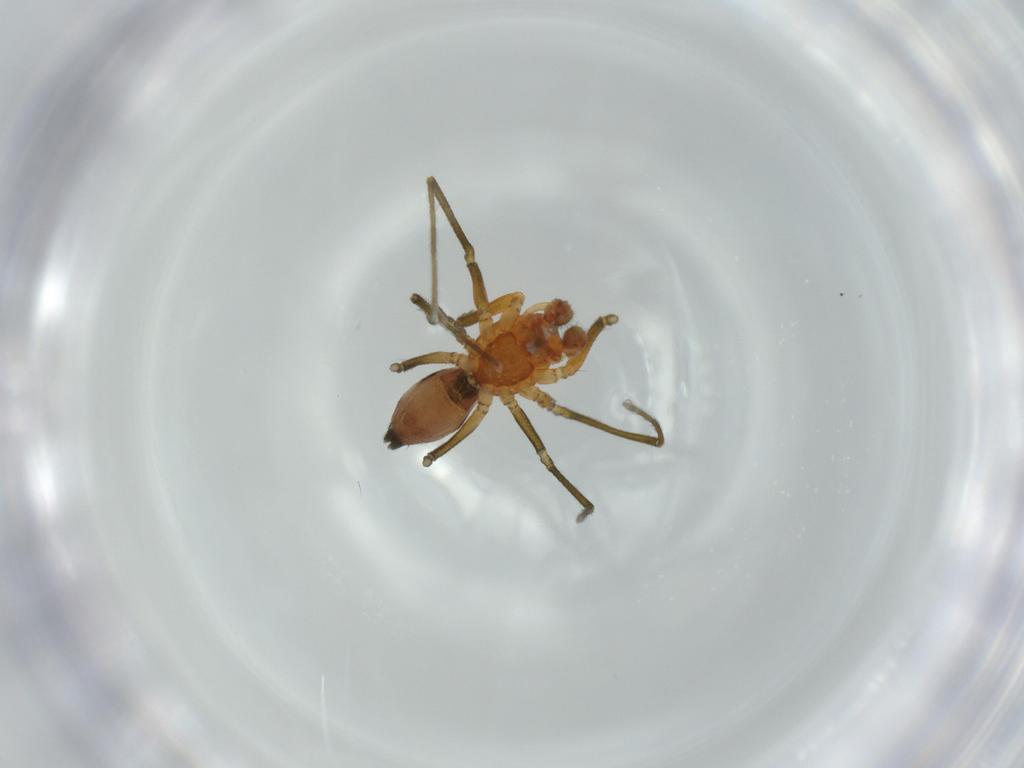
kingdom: Animalia
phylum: Arthropoda
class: Arachnida
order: Araneae
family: Linyphiidae
